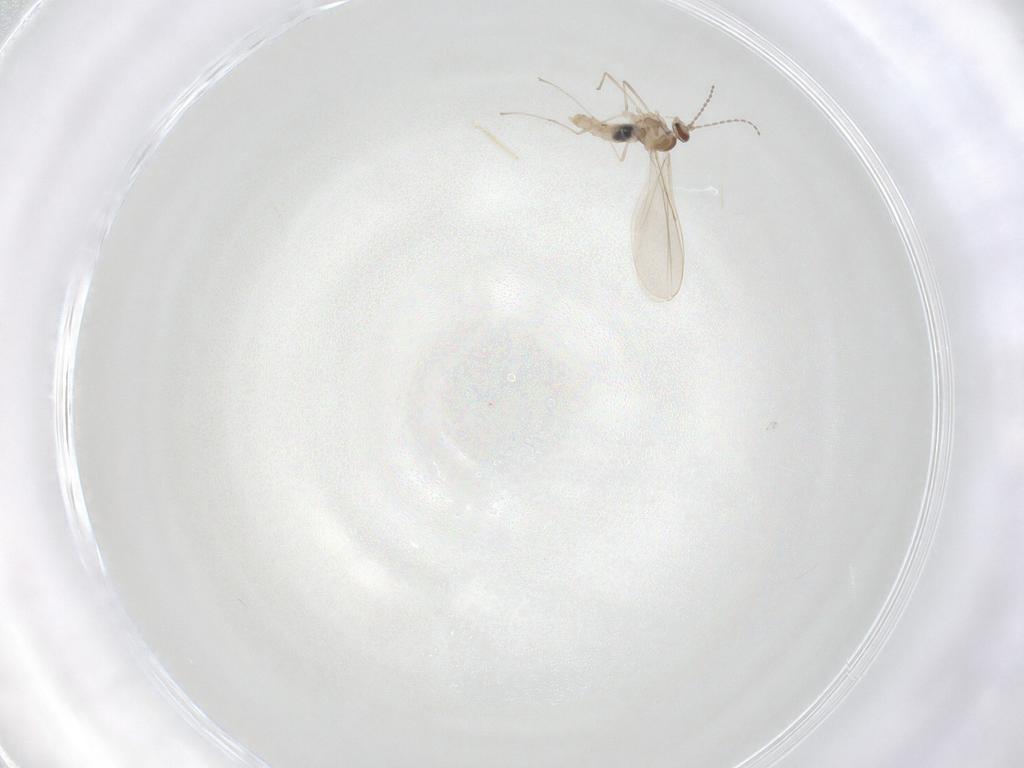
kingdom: Animalia
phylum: Arthropoda
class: Insecta
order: Diptera
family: Cecidomyiidae
